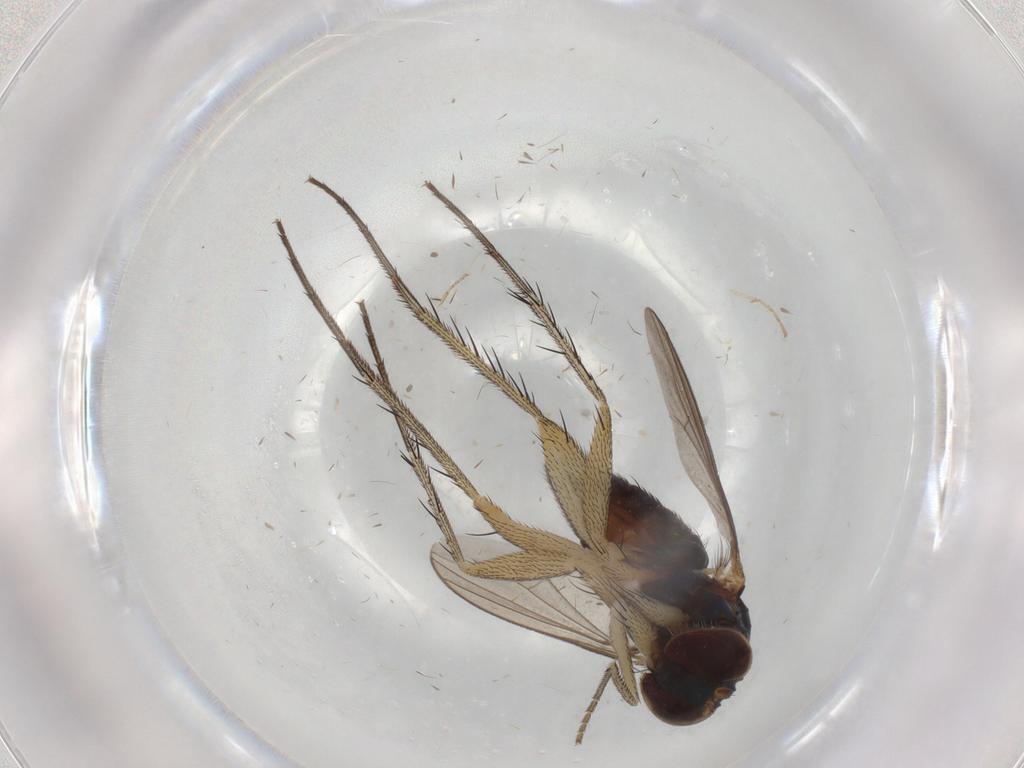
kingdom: Animalia
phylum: Arthropoda
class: Insecta
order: Diptera
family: Dolichopodidae
